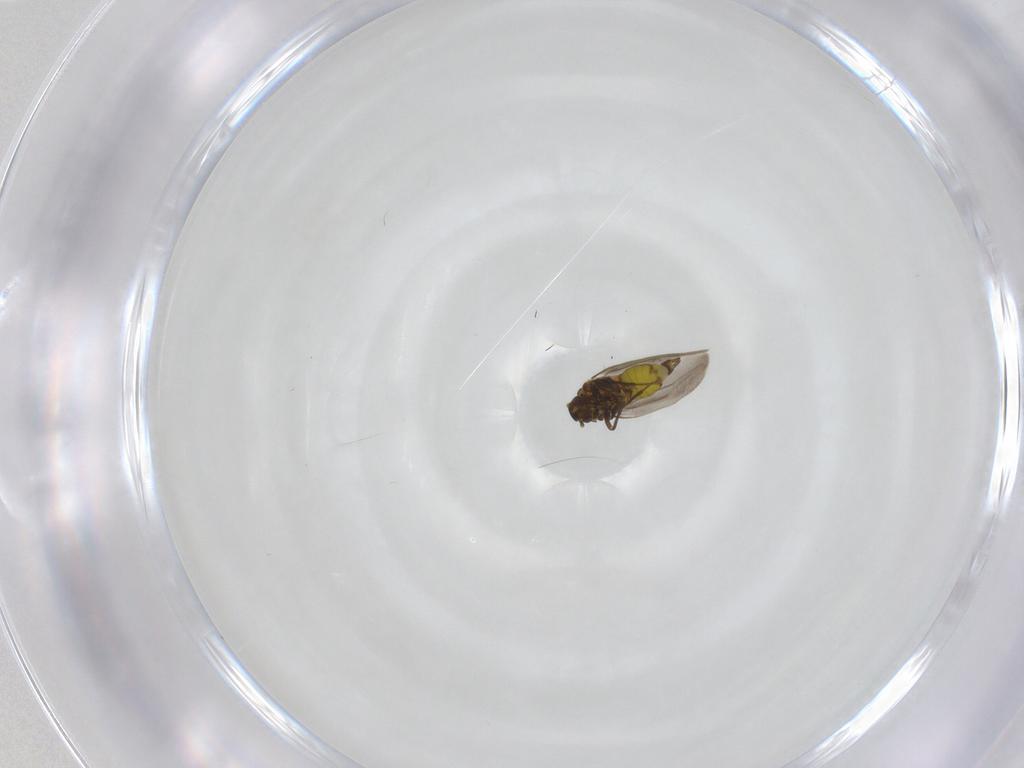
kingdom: Animalia
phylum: Arthropoda
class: Insecta
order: Hemiptera
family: Aleyrodidae
